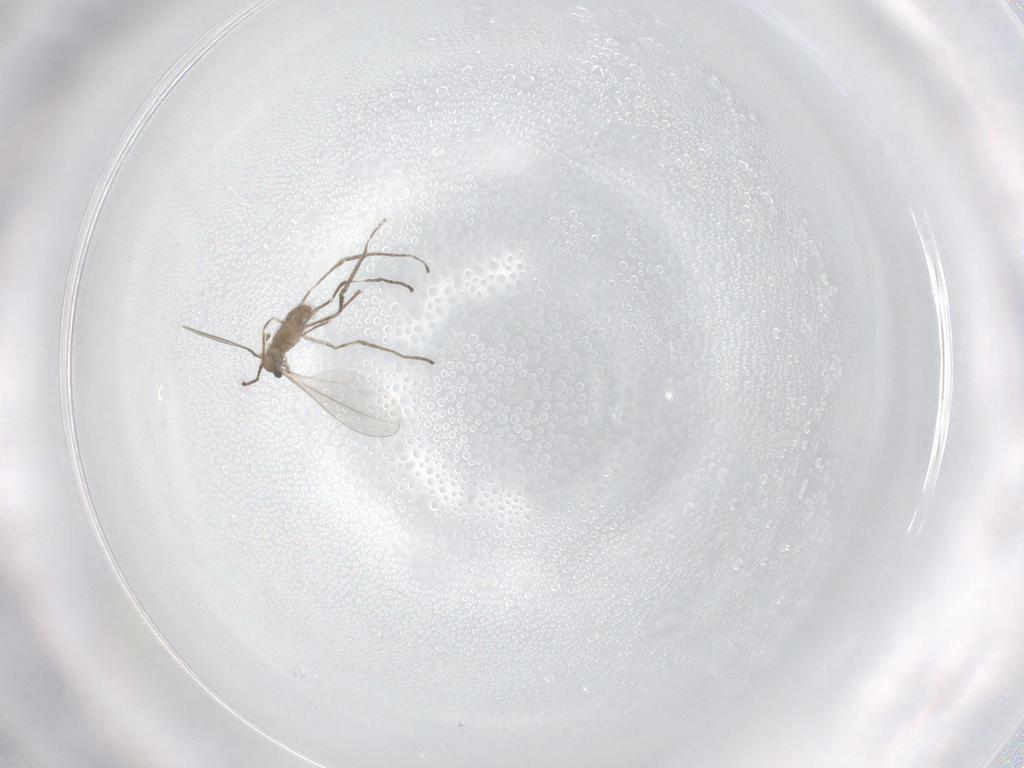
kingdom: Animalia
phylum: Arthropoda
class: Insecta
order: Diptera
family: Cecidomyiidae
